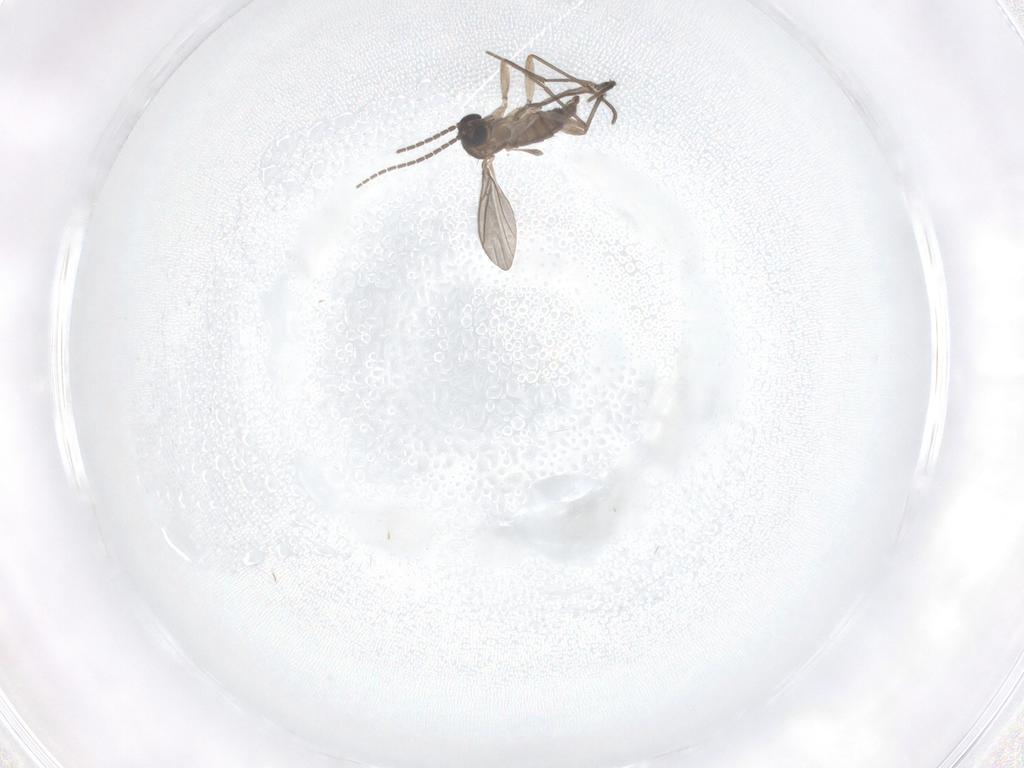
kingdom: Animalia
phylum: Arthropoda
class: Insecta
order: Diptera
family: Sciaridae
